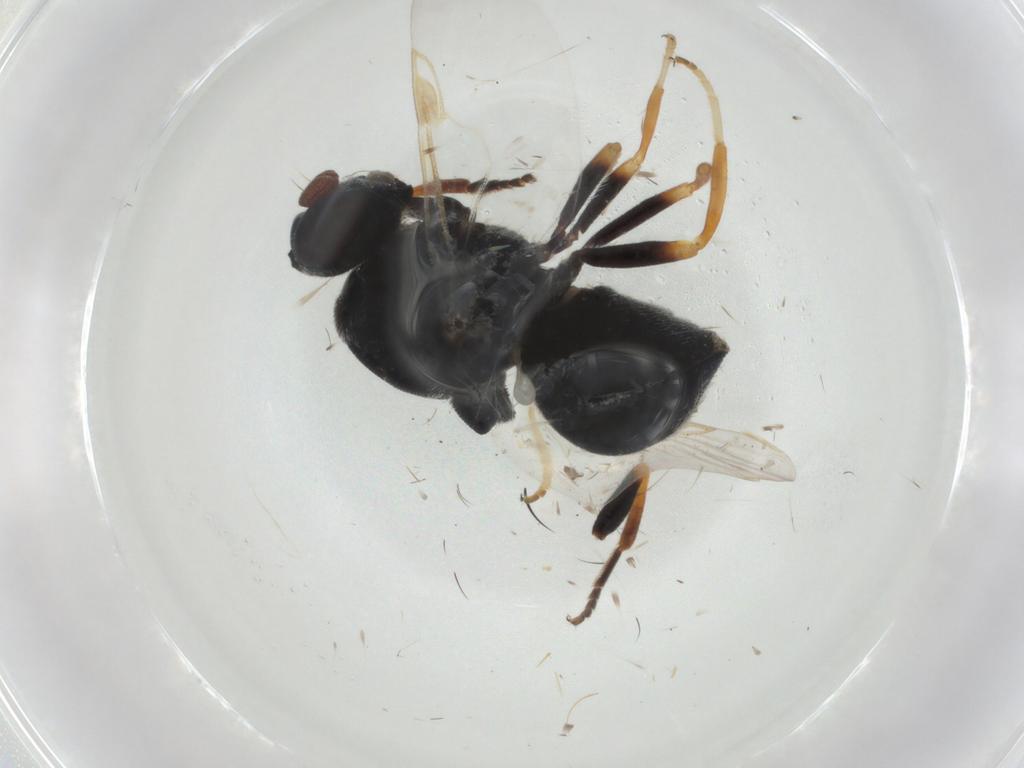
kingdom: Animalia
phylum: Arthropoda
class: Insecta
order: Diptera
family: Stratiomyidae
